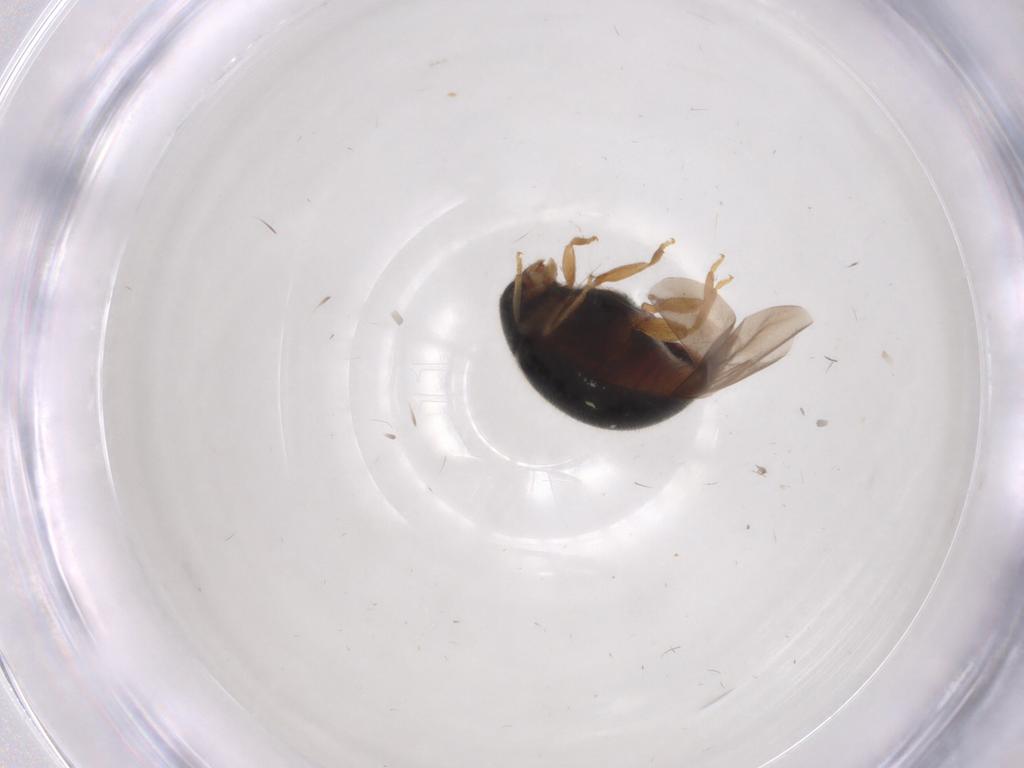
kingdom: Animalia
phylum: Arthropoda
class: Insecta
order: Coleoptera
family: Coccinellidae
